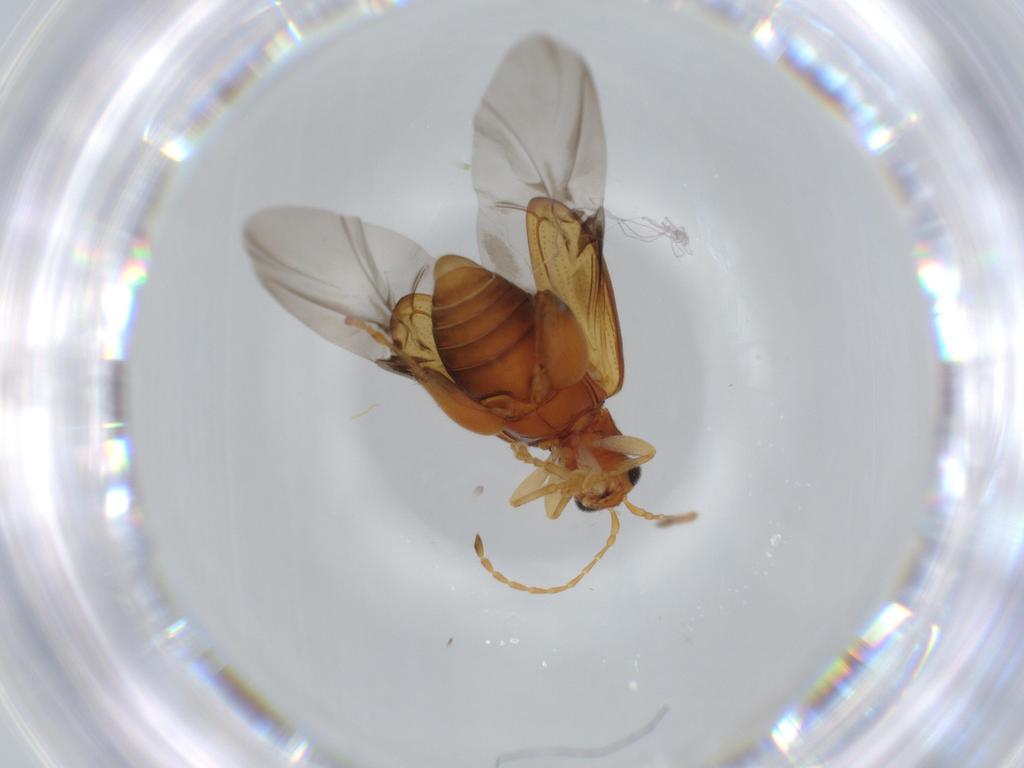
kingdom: Animalia
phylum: Arthropoda
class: Insecta
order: Coleoptera
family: Chrysomelidae
